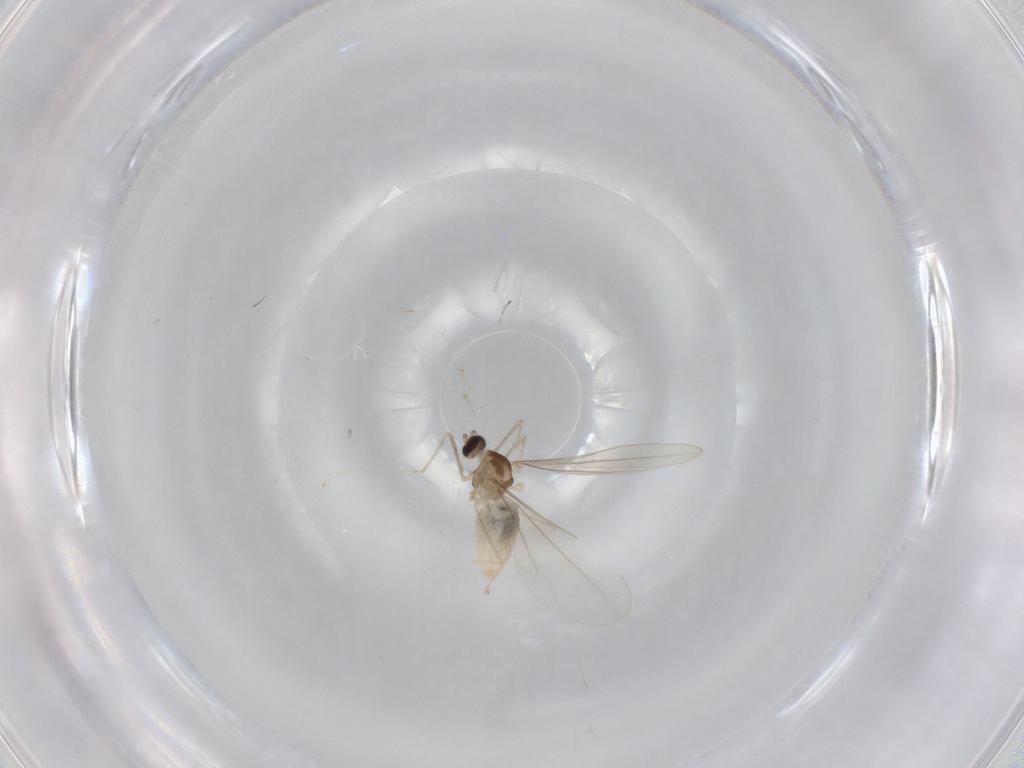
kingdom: Animalia
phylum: Arthropoda
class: Insecta
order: Diptera
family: Cecidomyiidae
